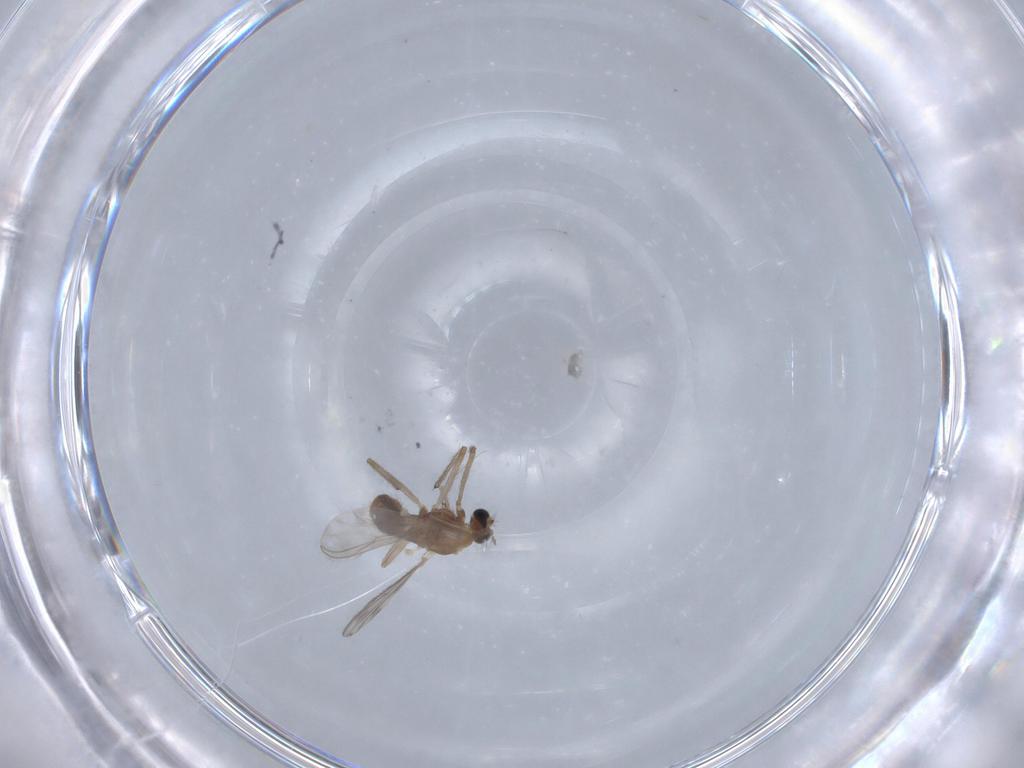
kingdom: Animalia
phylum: Arthropoda
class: Insecta
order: Diptera
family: Chironomidae
